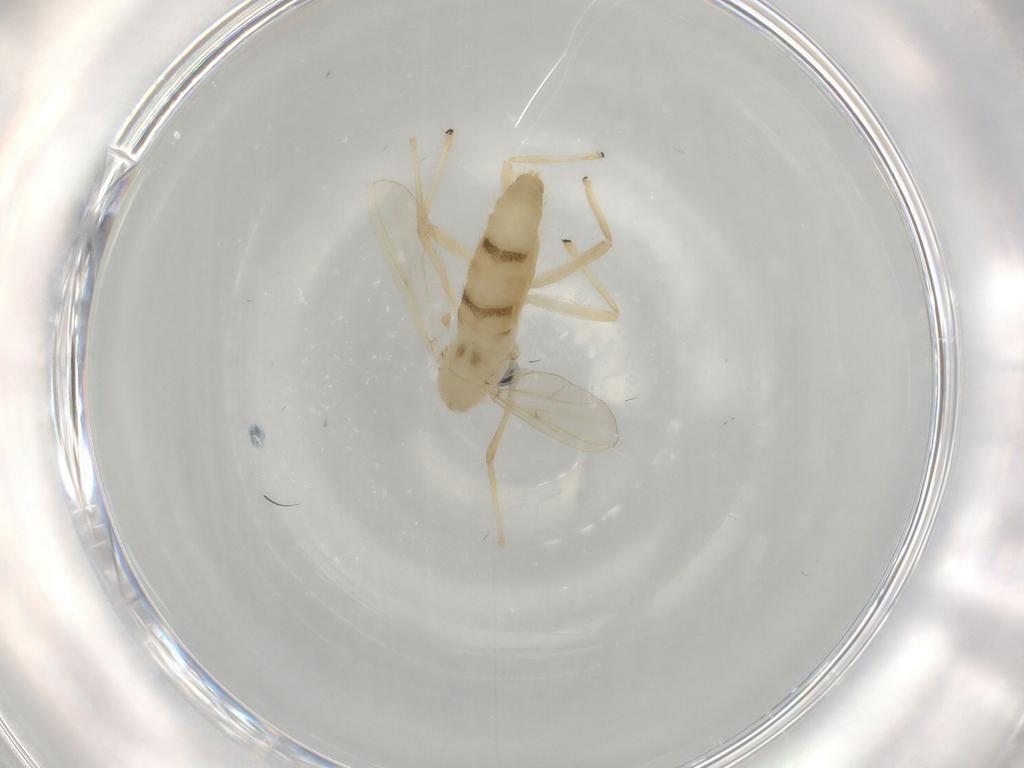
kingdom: Animalia
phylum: Arthropoda
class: Insecta
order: Diptera
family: Chironomidae
